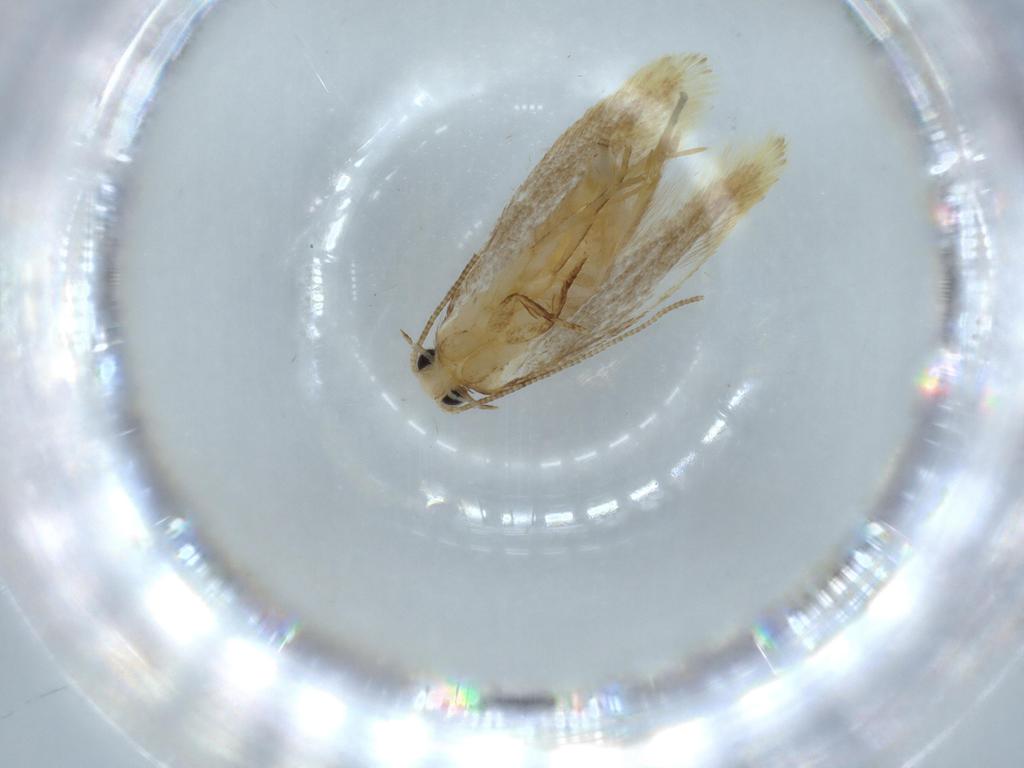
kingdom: Animalia
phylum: Arthropoda
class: Insecta
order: Lepidoptera
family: Tineidae
